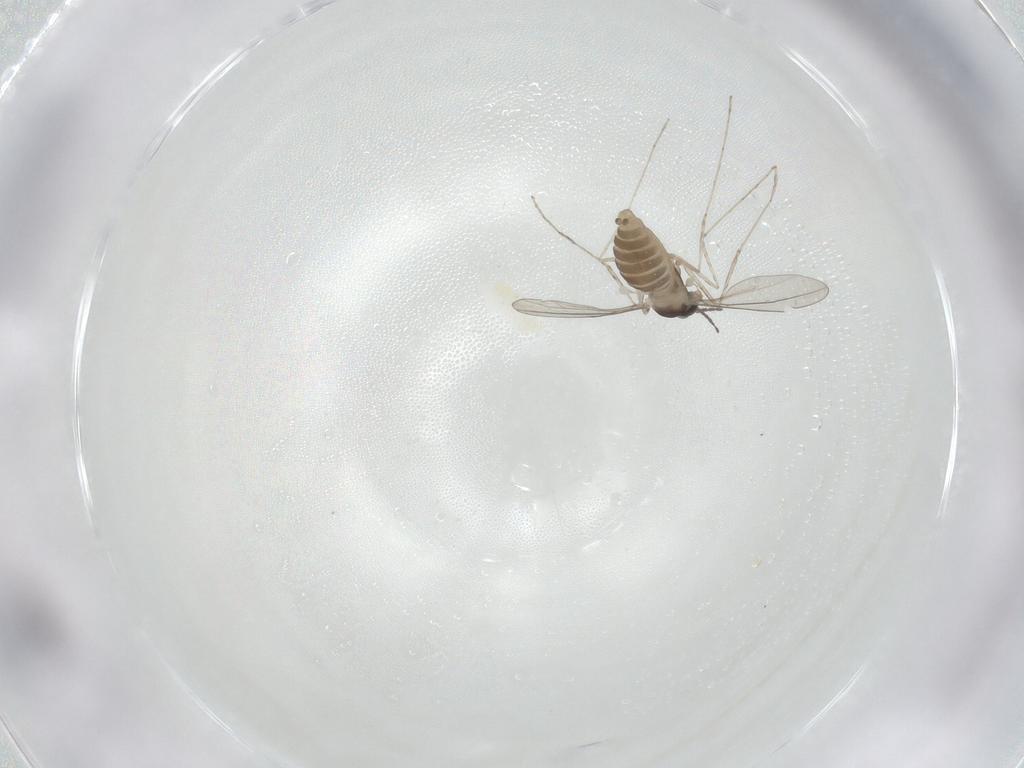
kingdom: Animalia
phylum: Arthropoda
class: Insecta
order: Diptera
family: Cecidomyiidae
